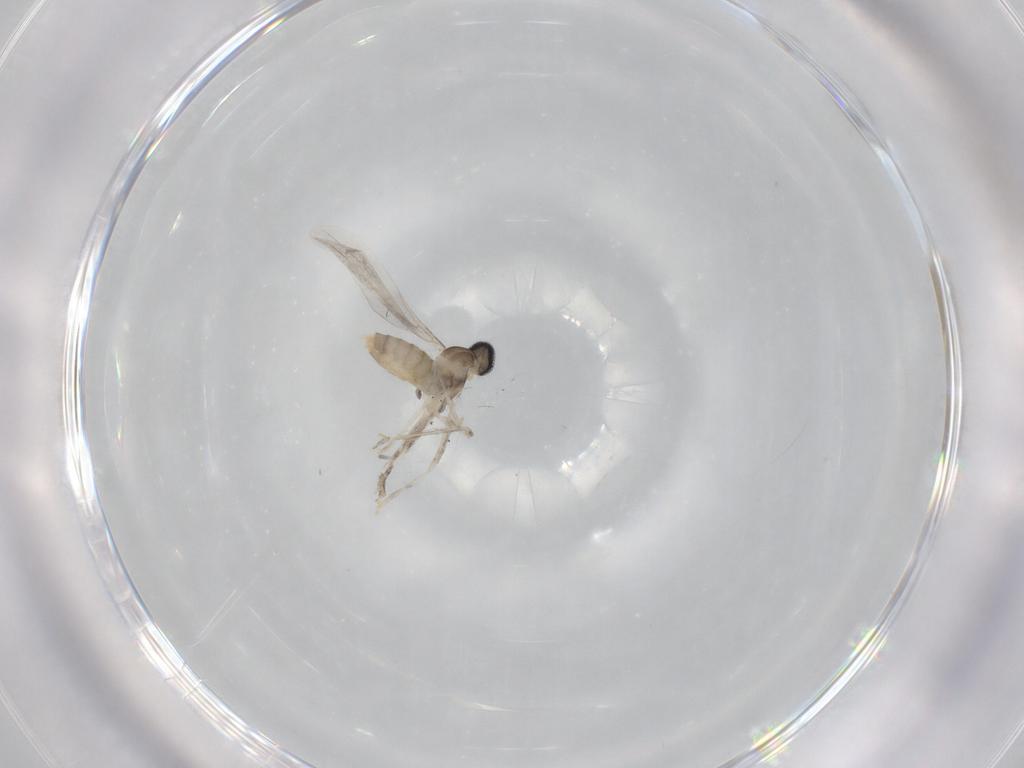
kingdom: Animalia
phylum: Arthropoda
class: Insecta
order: Diptera
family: Cecidomyiidae
